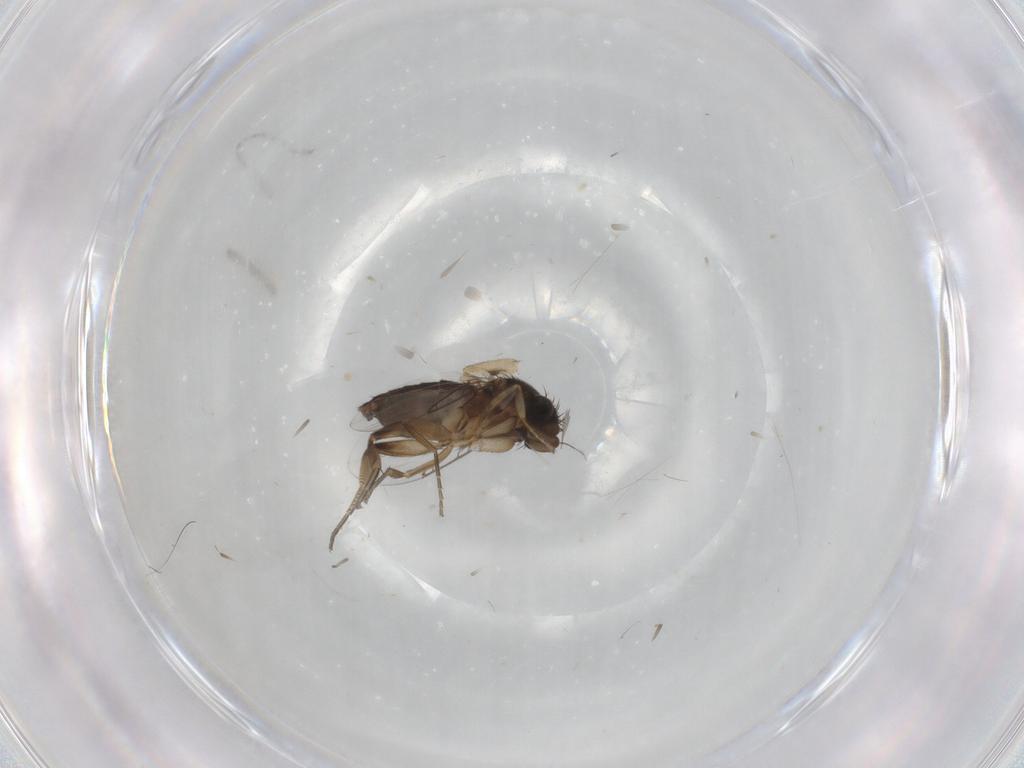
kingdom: Animalia
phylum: Arthropoda
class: Insecta
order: Diptera
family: Phoridae
